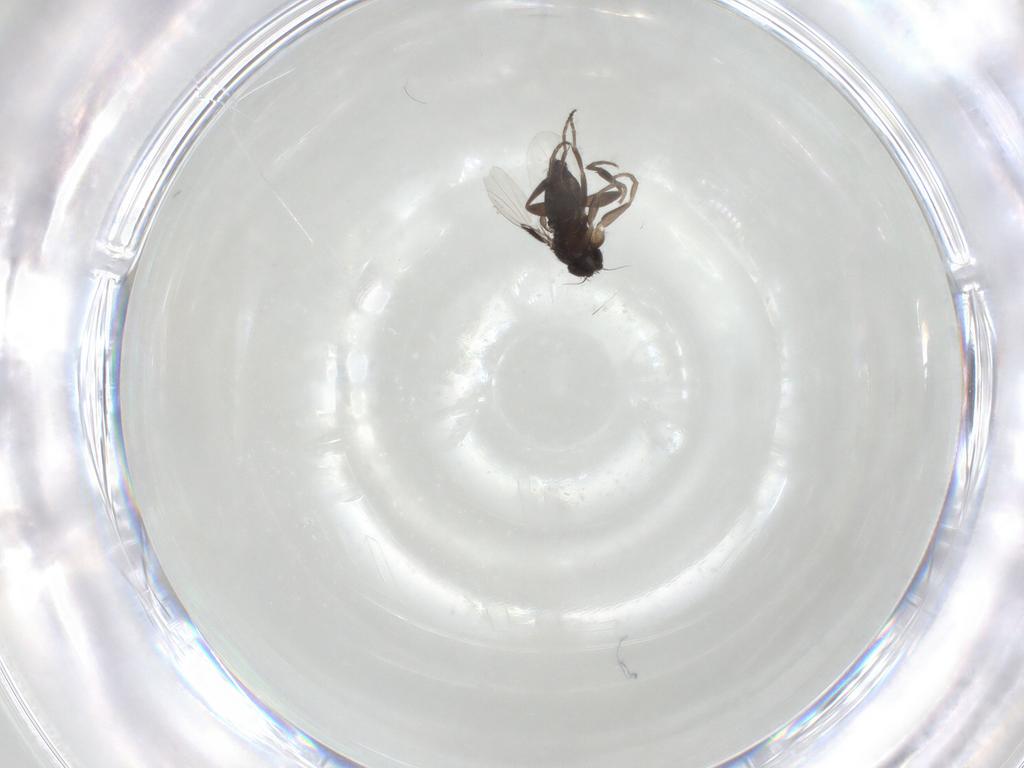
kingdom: Animalia
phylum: Arthropoda
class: Insecta
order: Diptera
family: Phoridae
